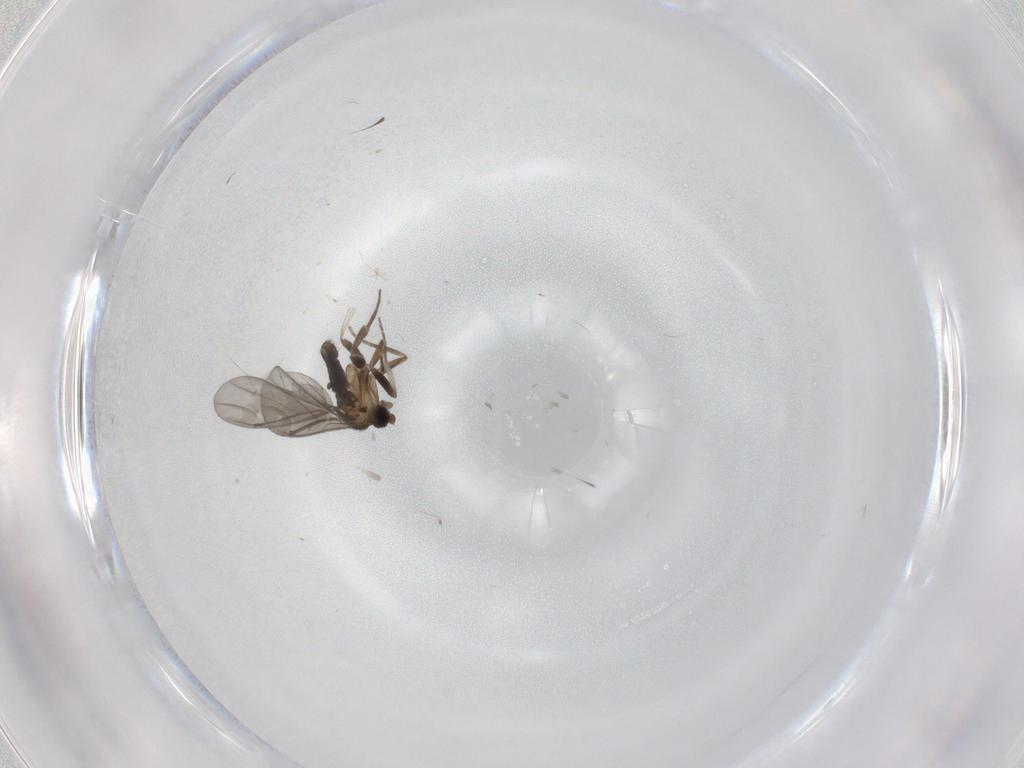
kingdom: Animalia
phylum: Arthropoda
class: Insecta
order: Diptera
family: Phoridae
